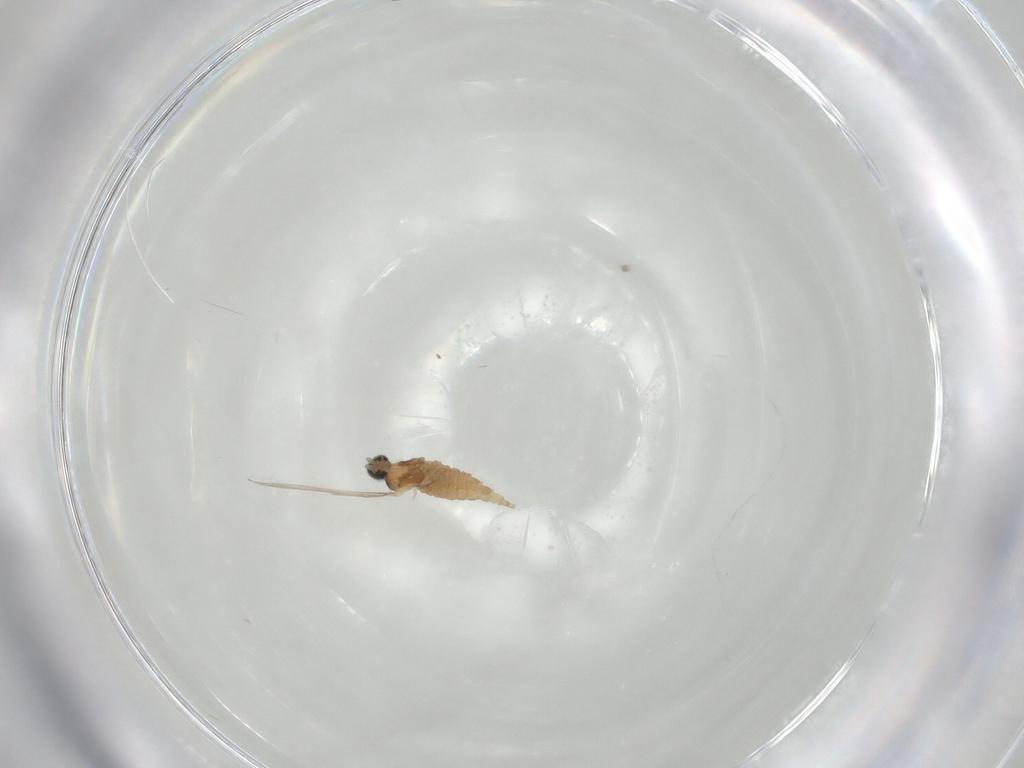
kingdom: Animalia
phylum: Arthropoda
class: Insecta
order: Diptera
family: Cecidomyiidae
